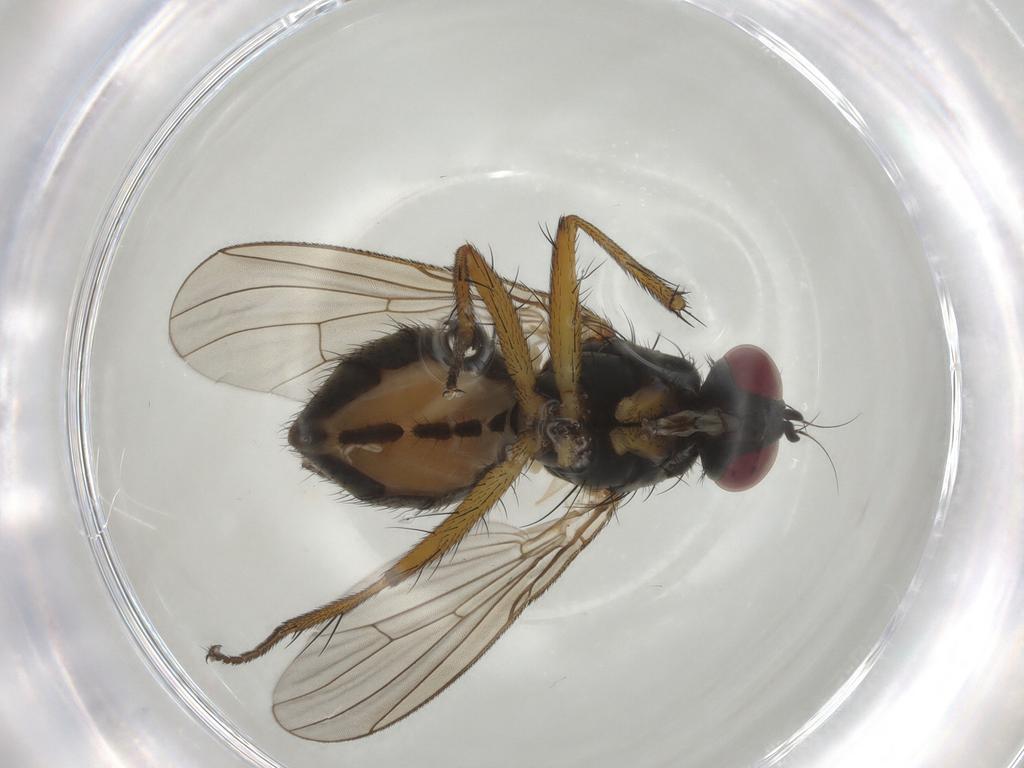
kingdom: Animalia
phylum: Arthropoda
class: Insecta
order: Diptera
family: Muscidae
